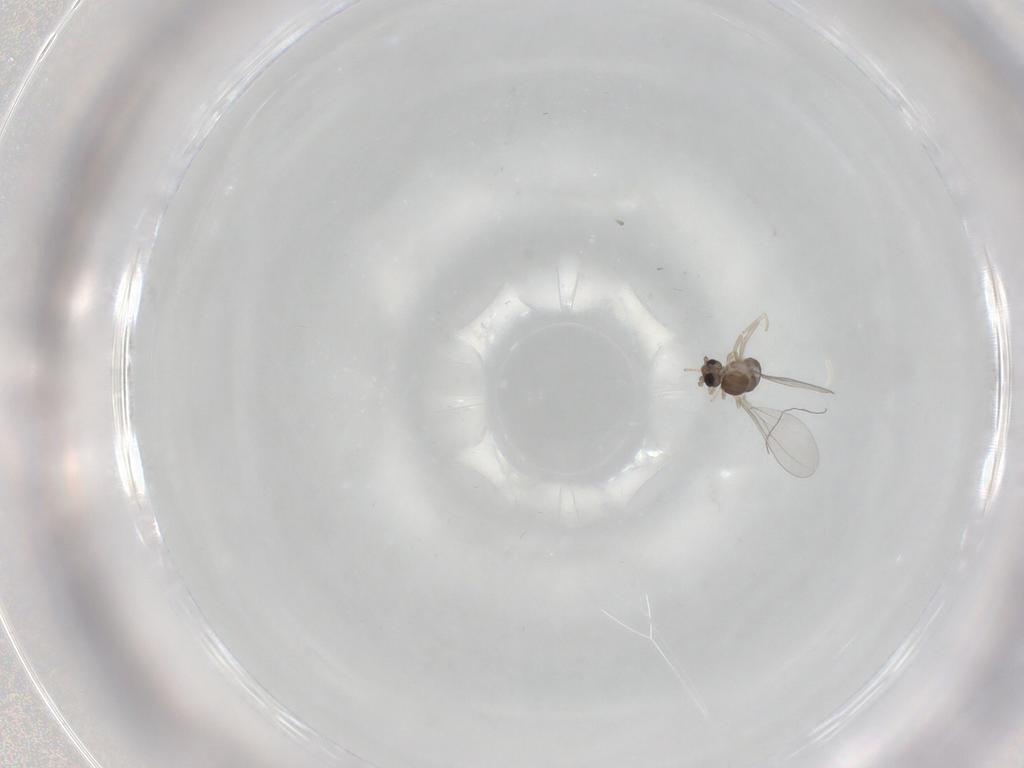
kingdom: Animalia
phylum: Arthropoda
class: Insecta
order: Diptera
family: Cecidomyiidae
